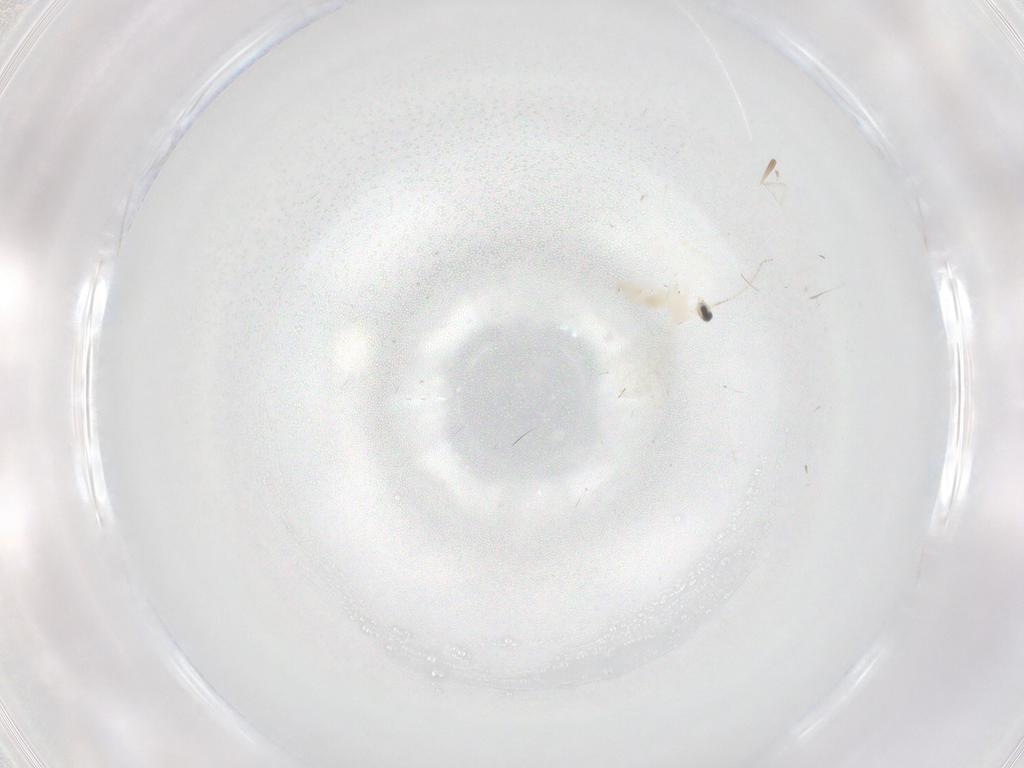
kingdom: Animalia
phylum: Arthropoda
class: Insecta
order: Diptera
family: Cecidomyiidae
